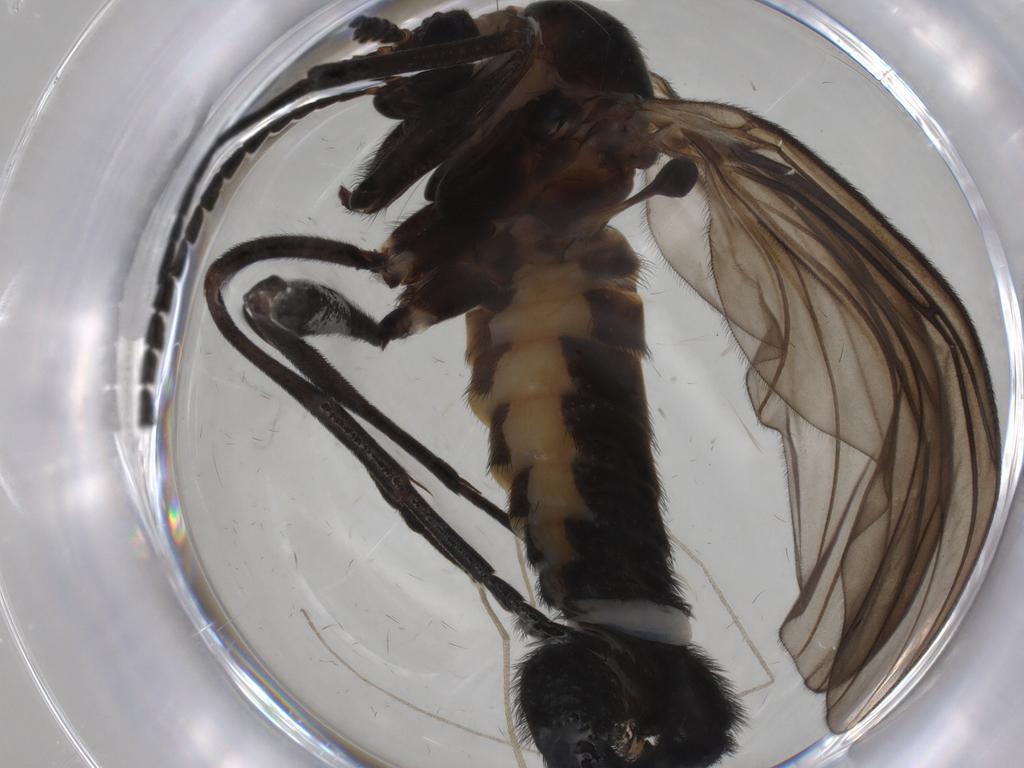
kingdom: Animalia
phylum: Arthropoda
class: Insecta
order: Diptera
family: Sciaridae
